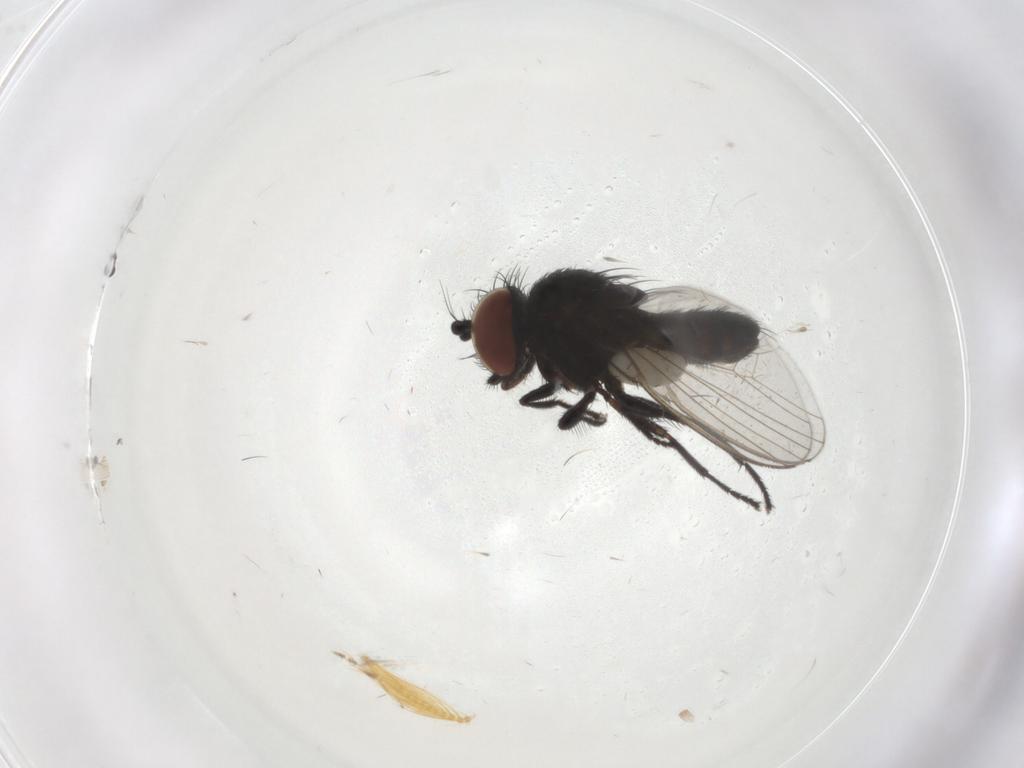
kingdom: Animalia
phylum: Arthropoda
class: Insecta
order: Diptera
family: Milichiidae
